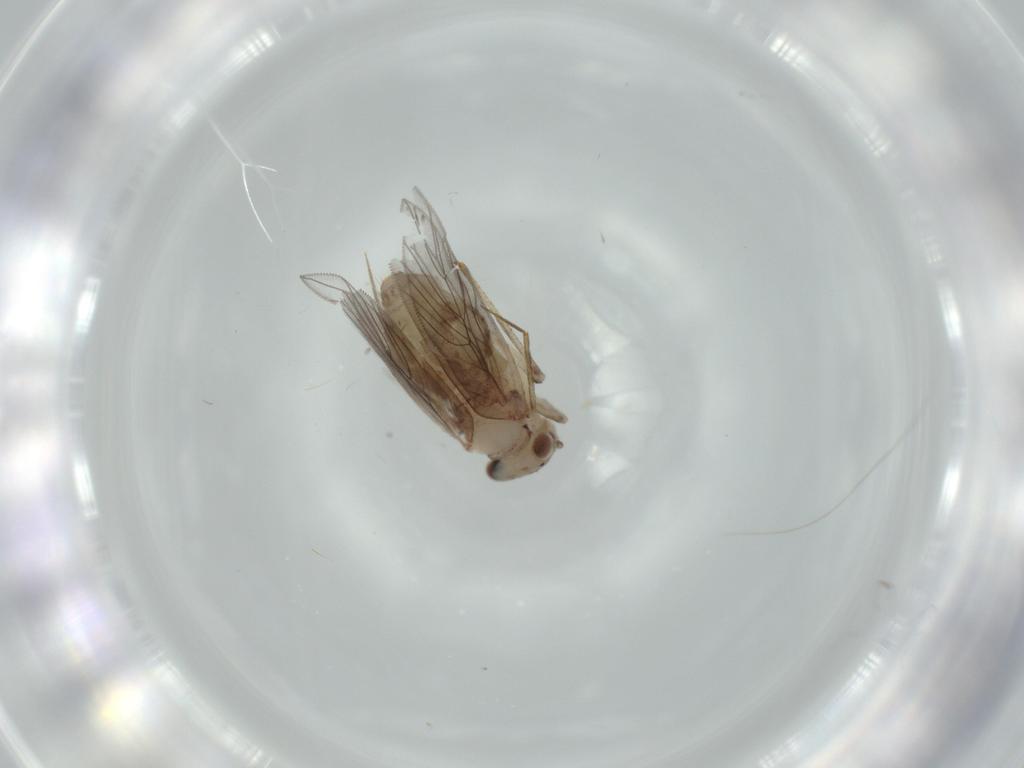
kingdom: Animalia
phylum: Arthropoda
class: Insecta
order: Psocodea
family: Lepidopsocidae
